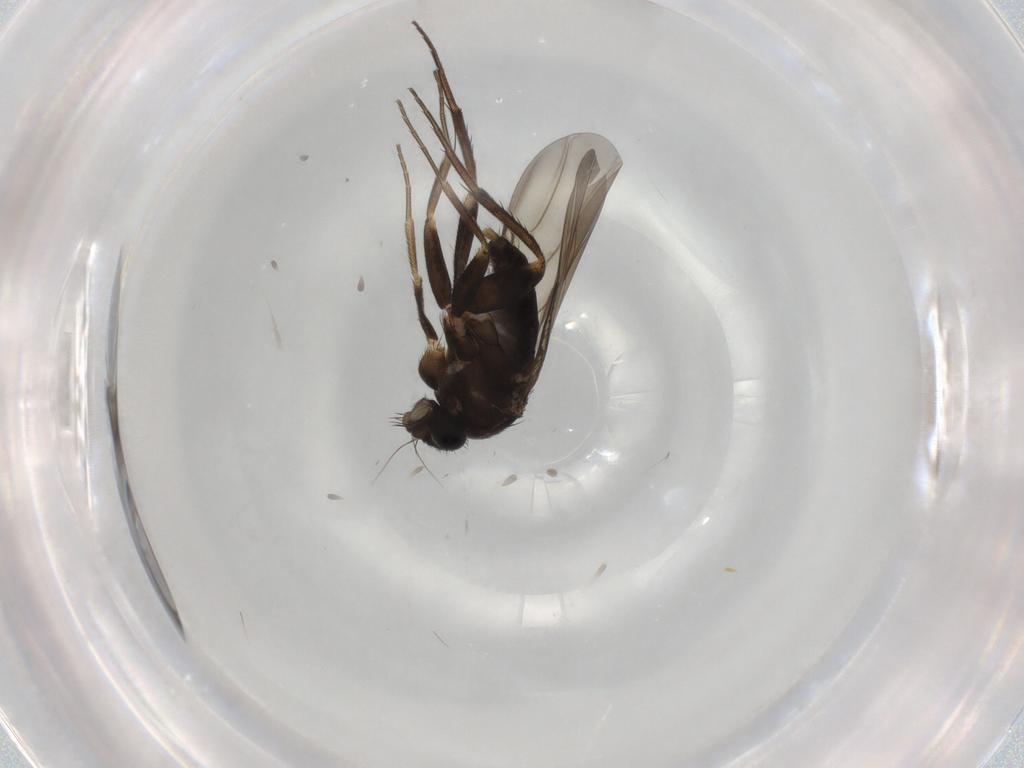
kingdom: Animalia
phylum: Arthropoda
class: Insecta
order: Diptera
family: Phoridae
